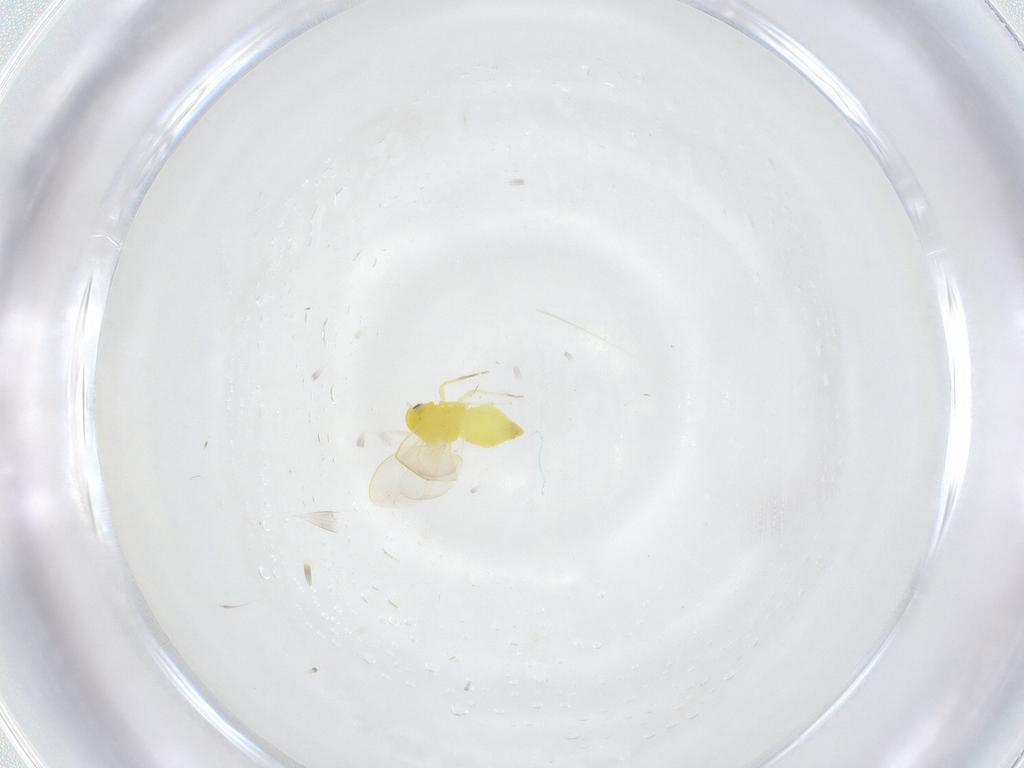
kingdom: Animalia
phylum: Arthropoda
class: Insecta
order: Hemiptera
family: Aleyrodidae
